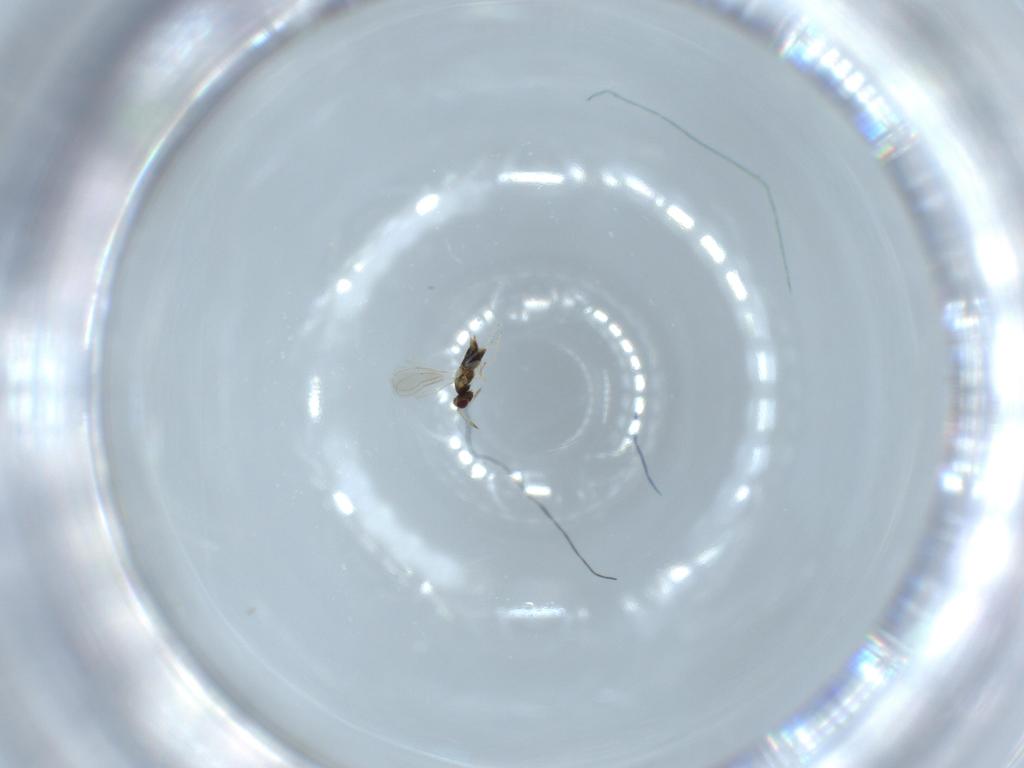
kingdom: Animalia
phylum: Arthropoda
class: Insecta
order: Hymenoptera
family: Aphelinidae
